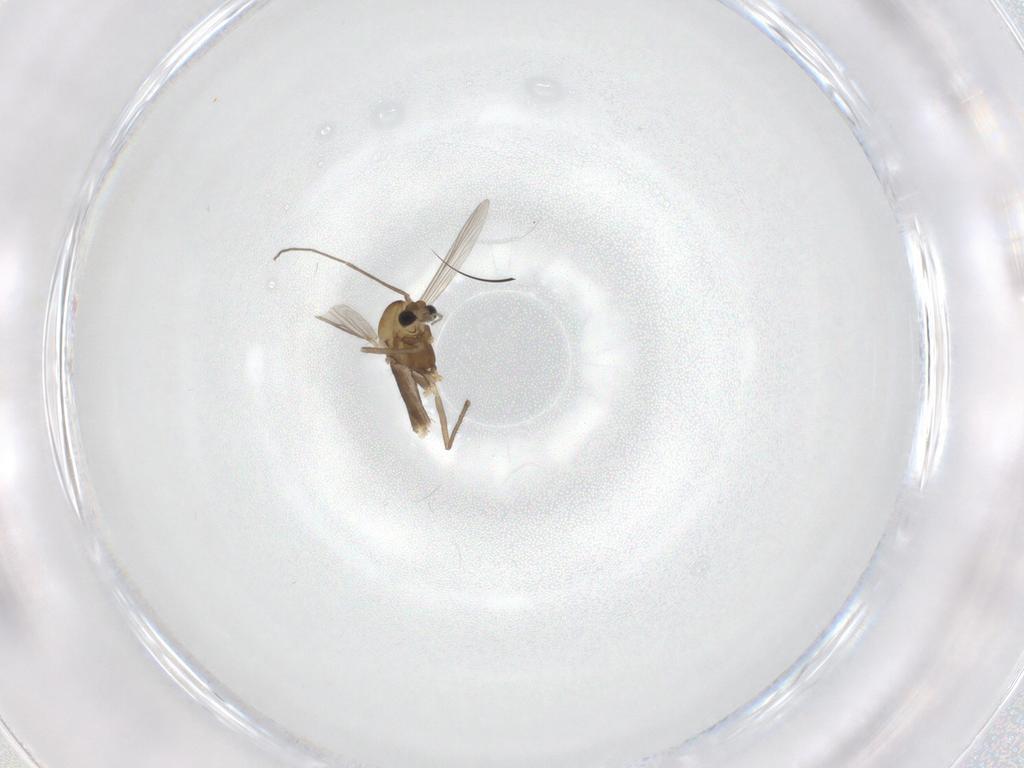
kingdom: Animalia
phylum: Arthropoda
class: Insecta
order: Diptera
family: Chironomidae
